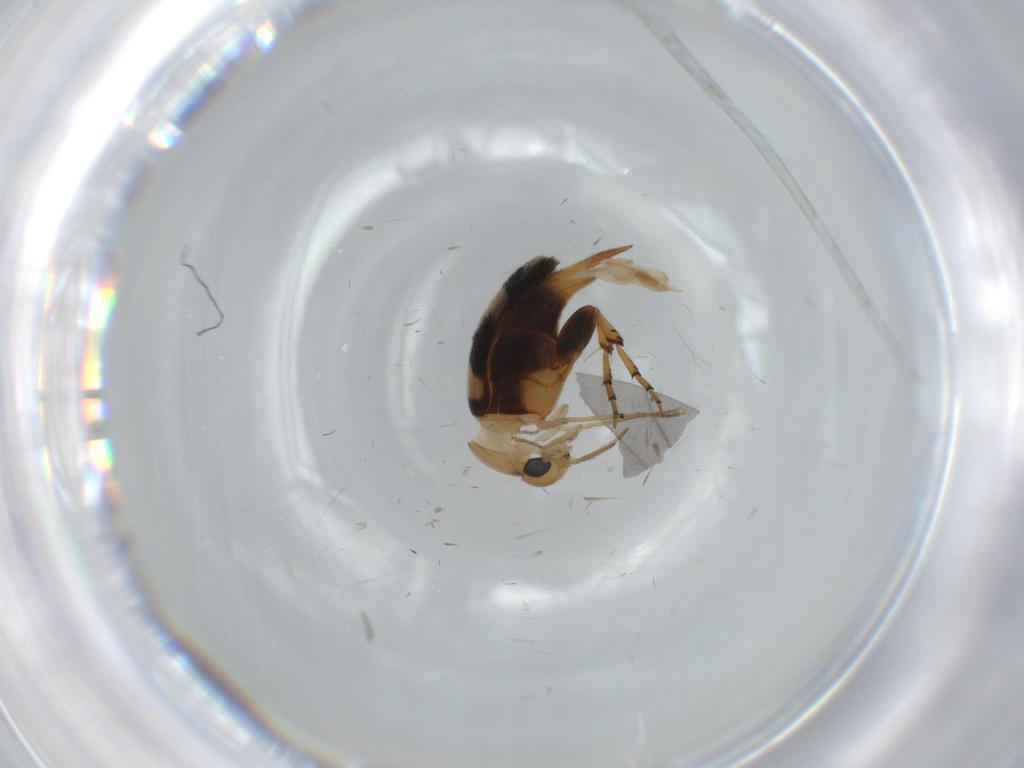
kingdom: Animalia
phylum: Arthropoda
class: Insecta
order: Coleoptera
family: Mordellidae
